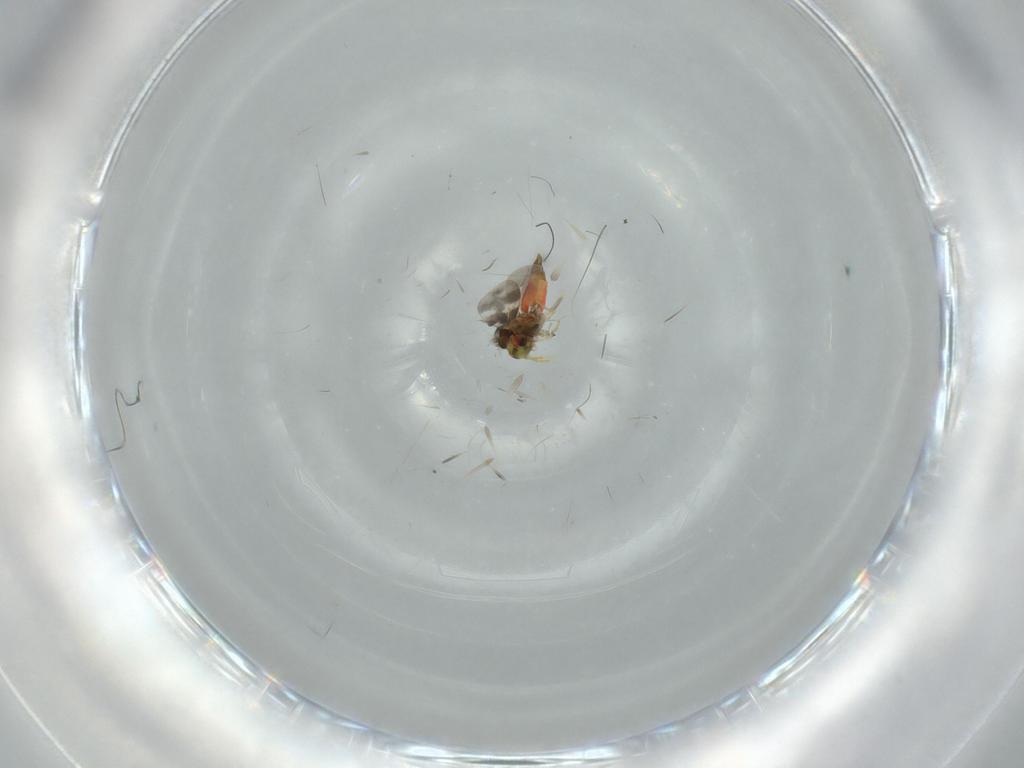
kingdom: Animalia
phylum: Arthropoda
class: Insecta
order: Hemiptera
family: Aleyrodidae
